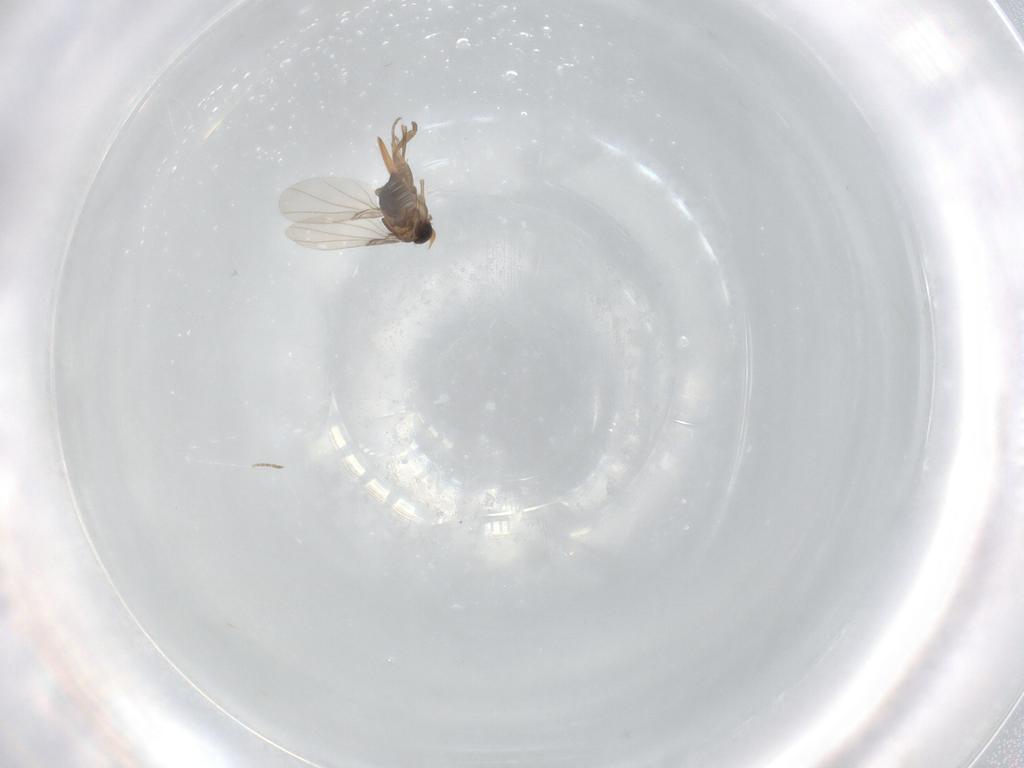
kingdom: Animalia
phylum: Arthropoda
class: Insecta
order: Diptera
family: Psychodidae
